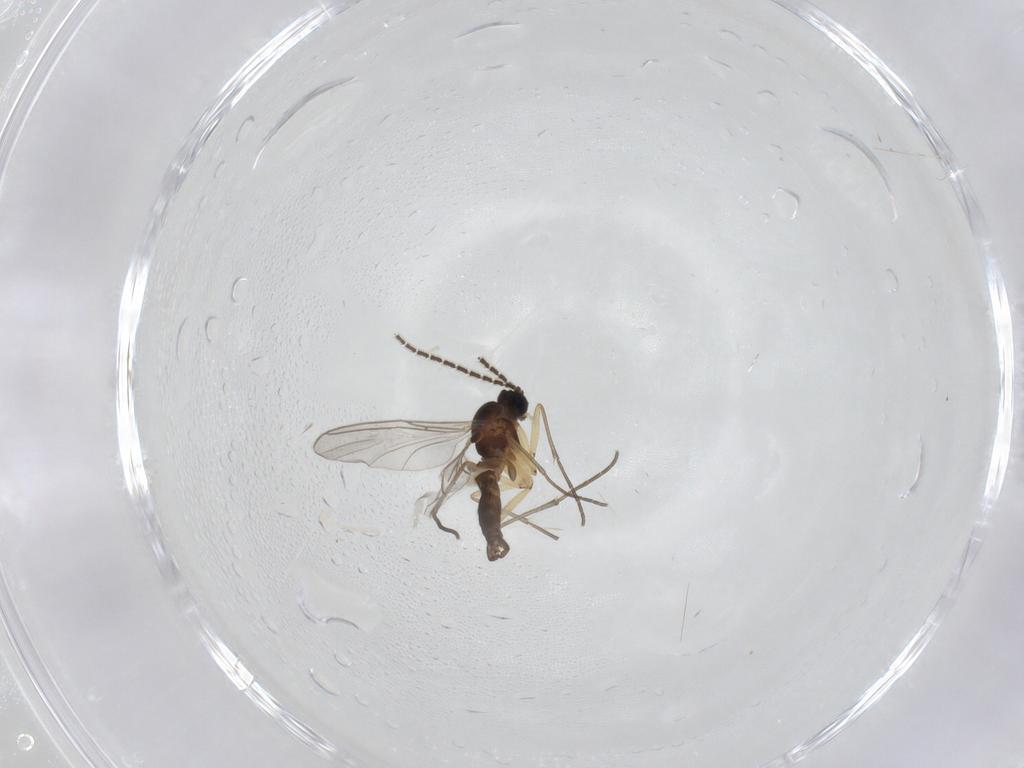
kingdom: Animalia
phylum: Arthropoda
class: Insecta
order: Diptera
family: Sciaridae
